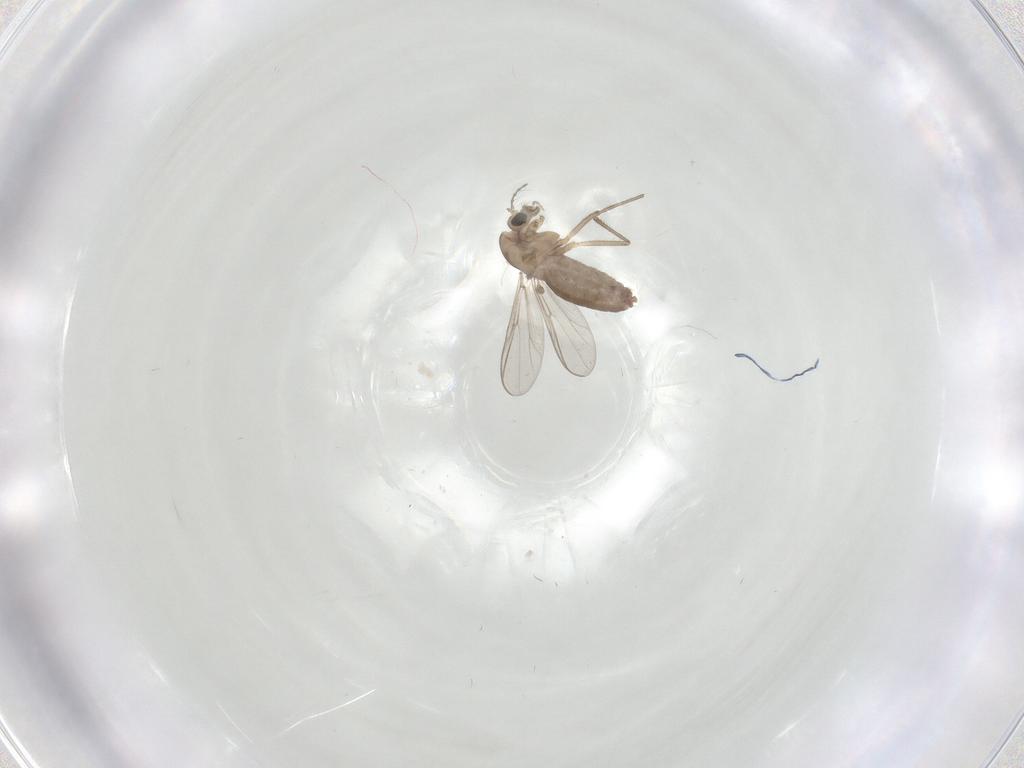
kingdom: Animalia
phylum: Arthropoda
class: Insecta
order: Diptera
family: Chironomidae
